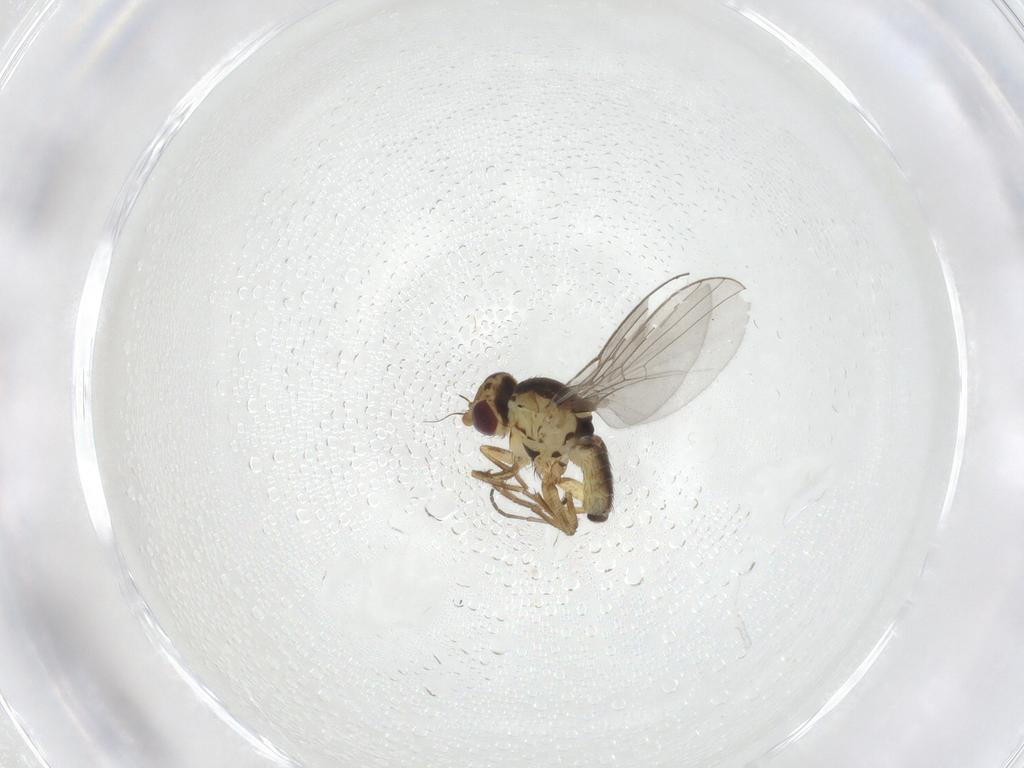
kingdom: Animalia
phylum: Arthropoda
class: Insecta
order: Diptera
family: Agromyzidae
